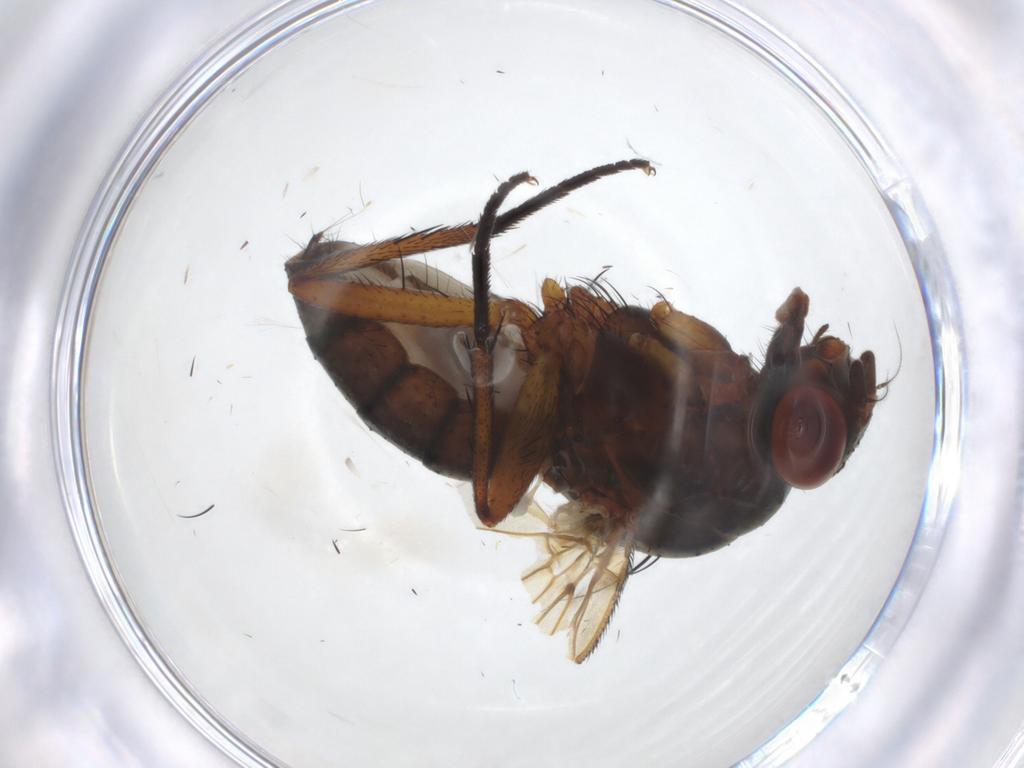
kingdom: Animalia
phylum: Arthropoda
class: Insecta
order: Diptera
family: Anthomyiidae
